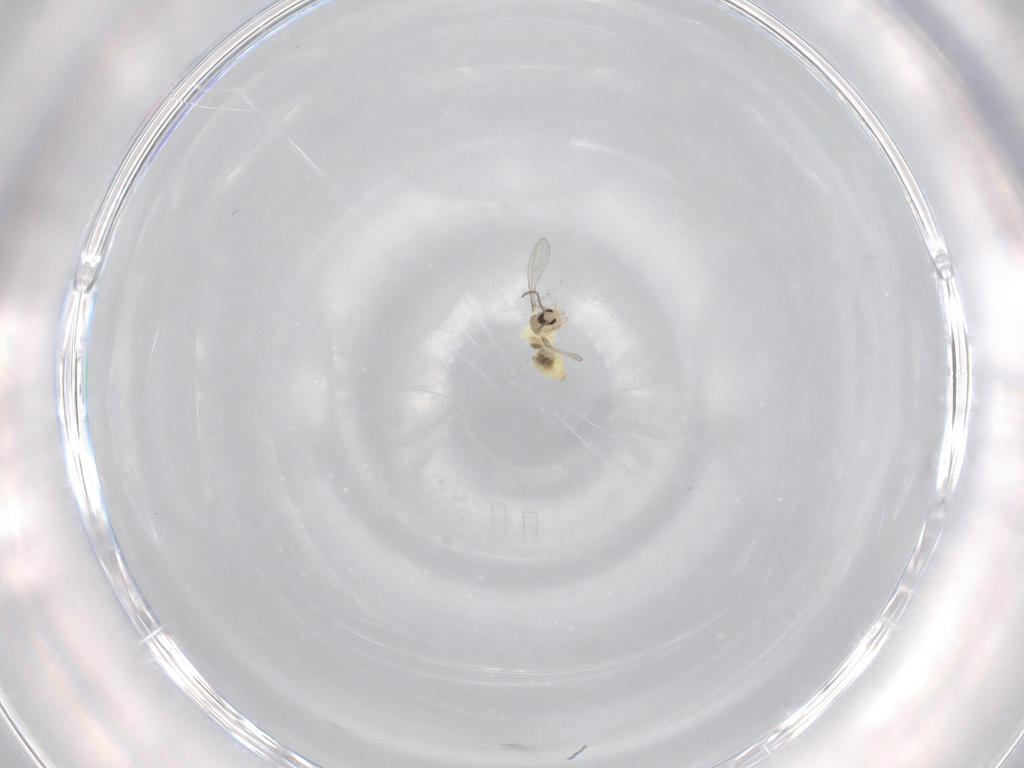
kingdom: Animalia
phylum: Arthropoda
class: Insecta
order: Diptera
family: Cecidomyiidae
